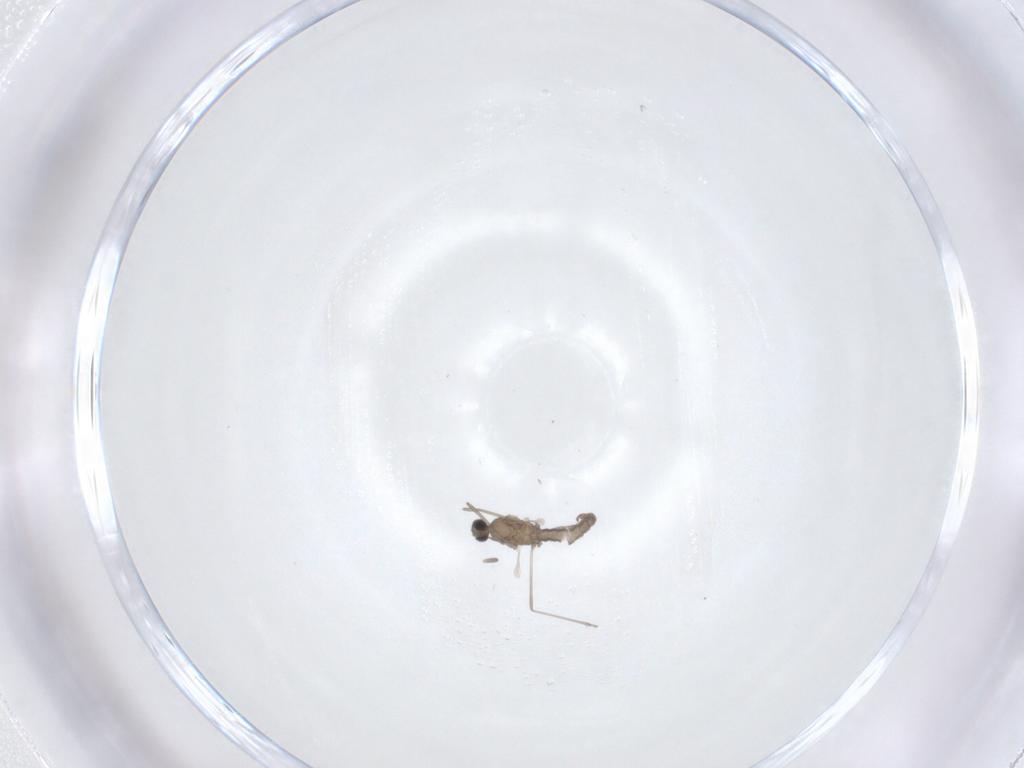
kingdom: Animalia
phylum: Arthropoda
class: Insecta
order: Diptera
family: Cecidomyiidae
